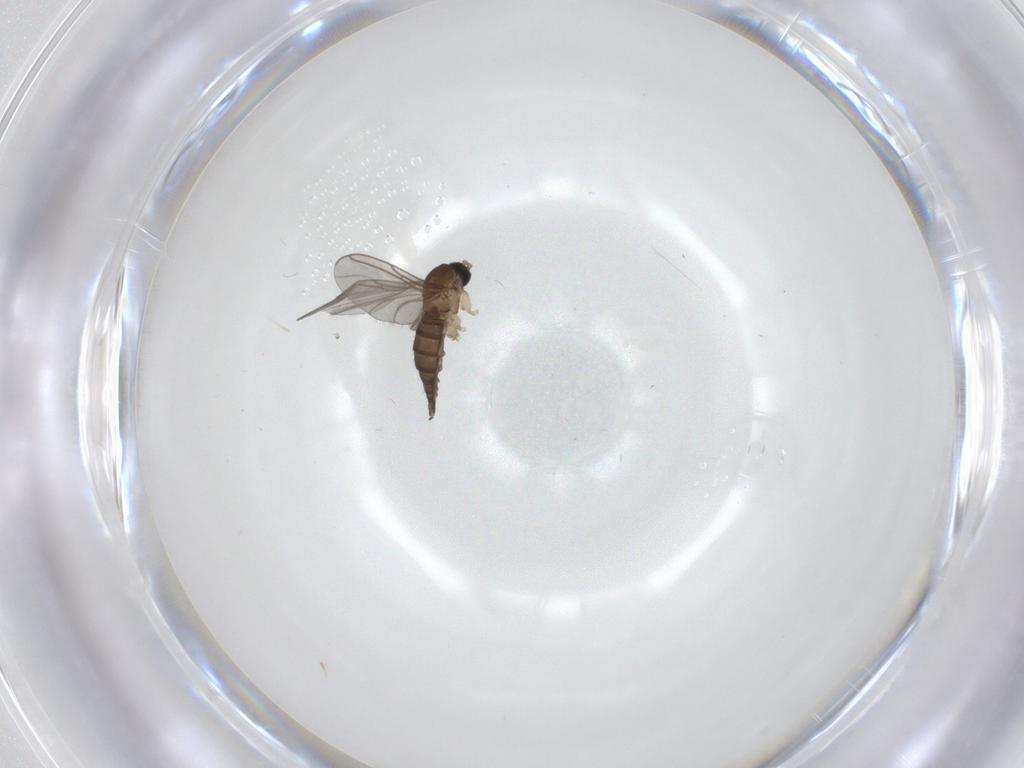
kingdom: Animalia
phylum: Arthropoda
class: Insecta
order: Diptera
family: Sciaridae
